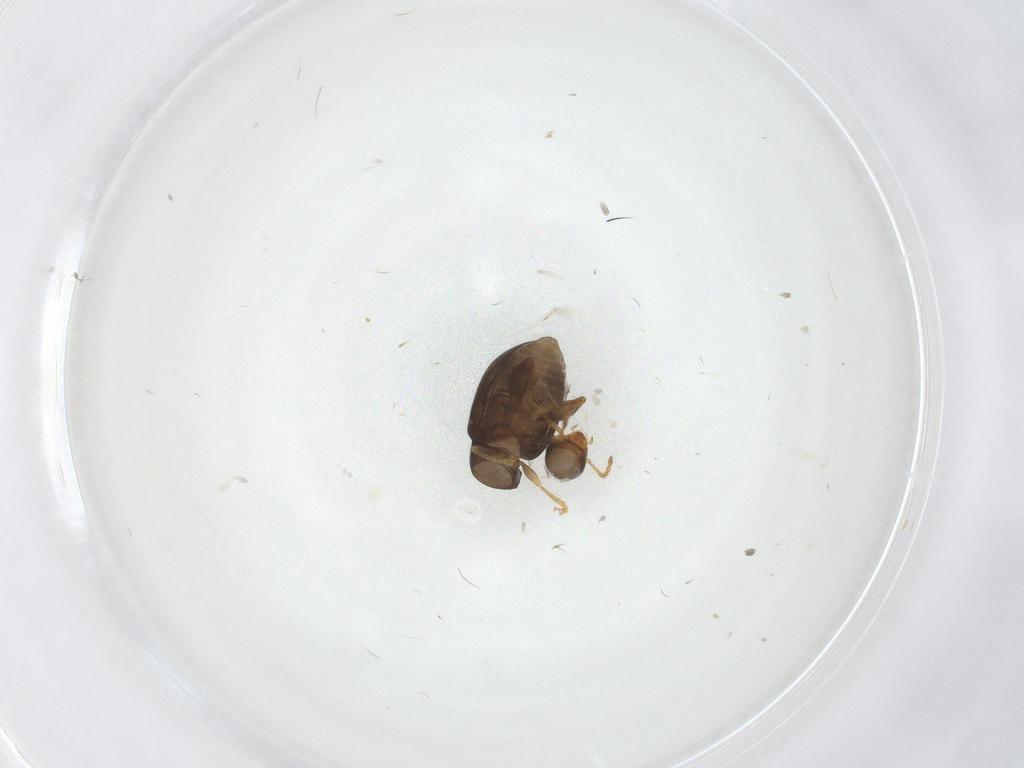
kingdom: Animalia
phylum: Arthropoda
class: Insecta
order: Coleoptera
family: Chrysomelidae
